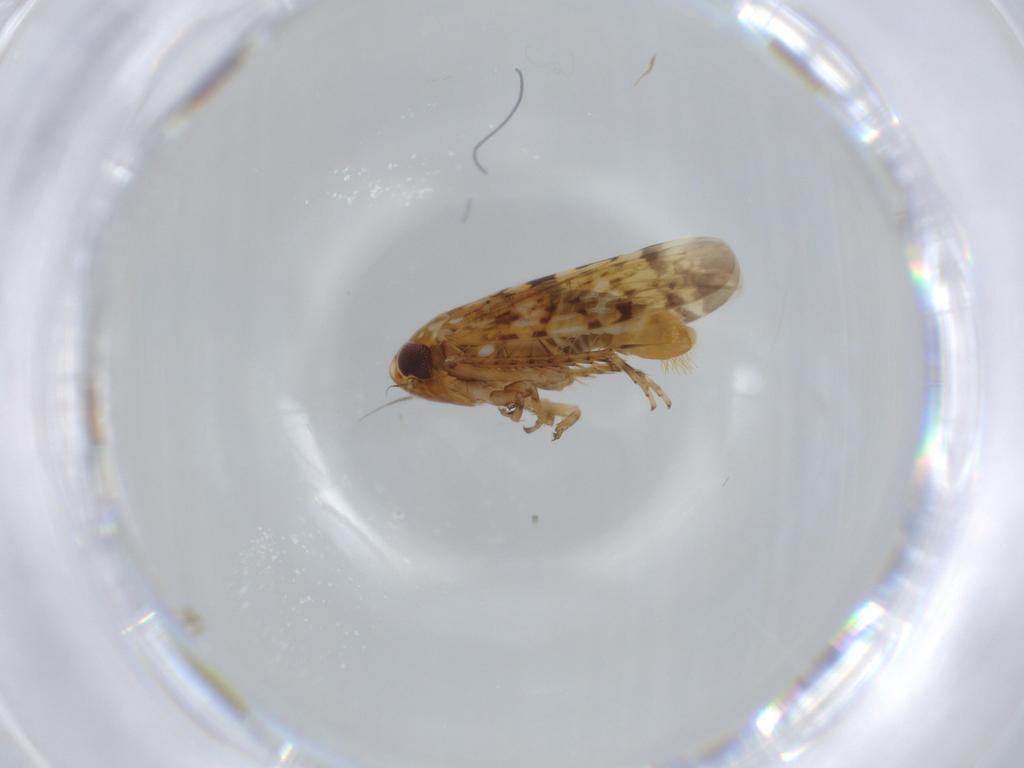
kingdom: Animalia
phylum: Arthropoda
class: Insecta
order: Hemiptera
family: Cicadellidae
